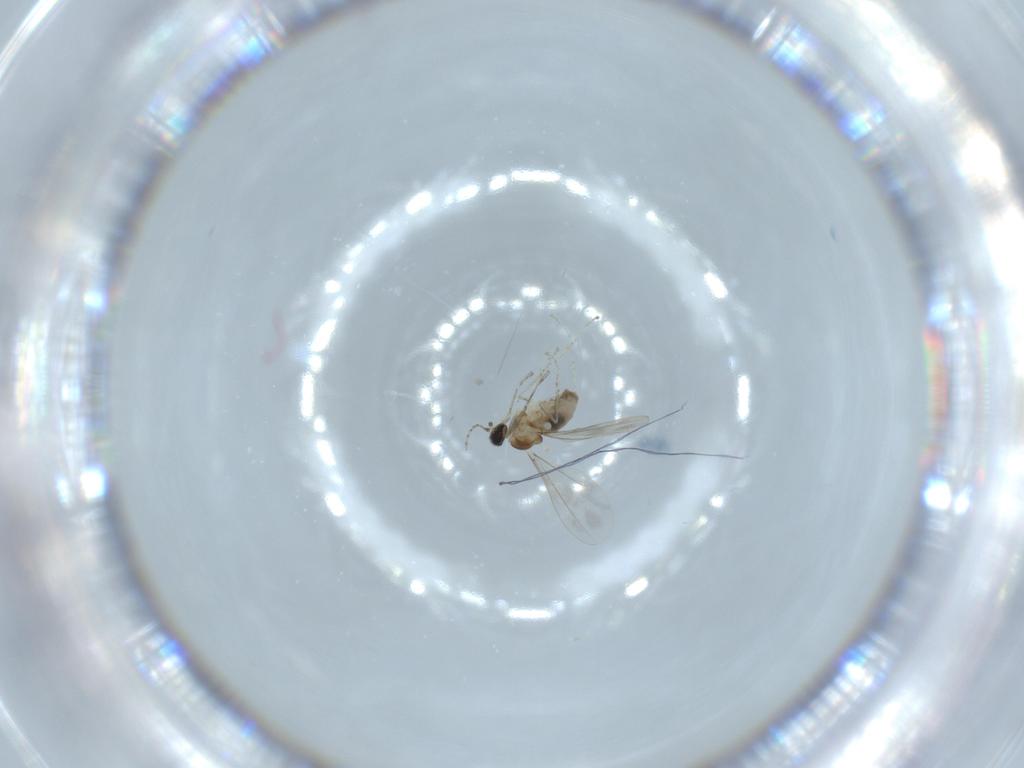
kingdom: Animalia
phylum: Arthropoda
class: Insecta
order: Diptera
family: Cecidomyiidae
